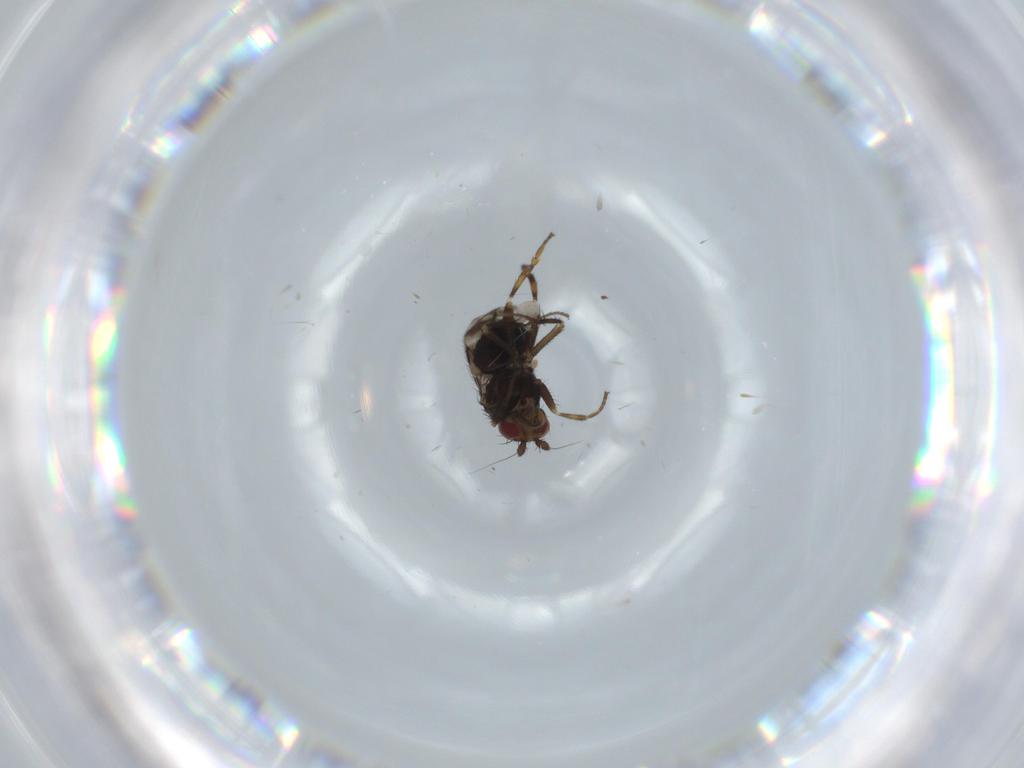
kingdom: Animalia
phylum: Arthropoda
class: Insecta
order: Diptera
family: Sphaeroceridae
